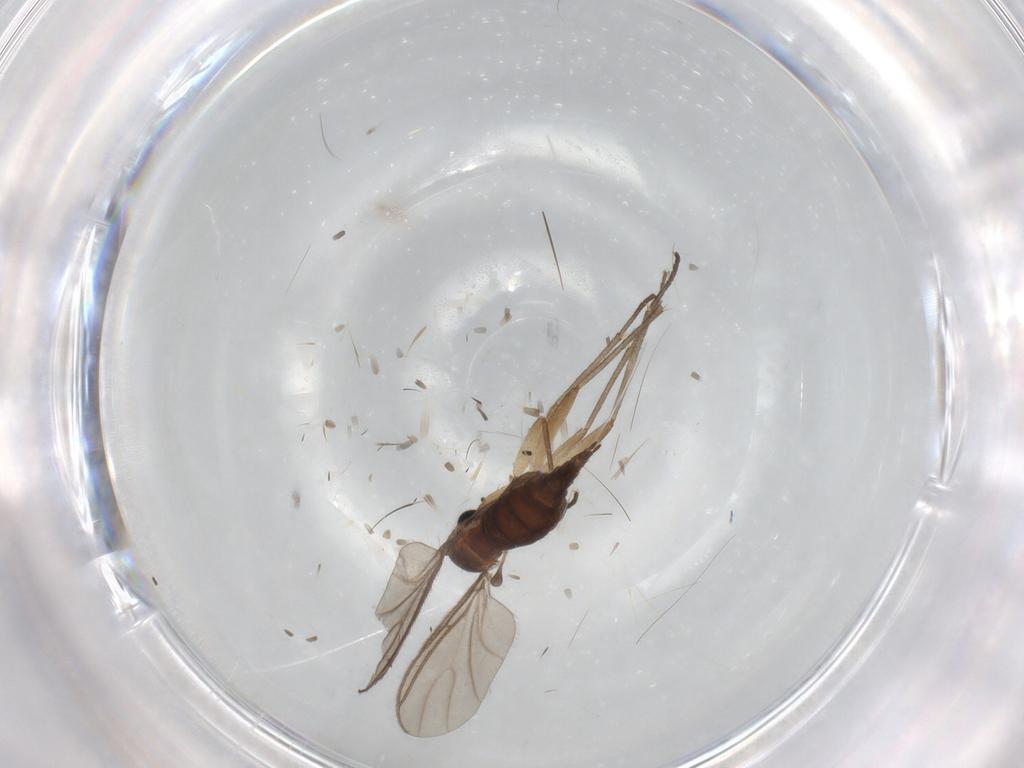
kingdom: Animalia
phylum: Arthropoda
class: Insecta
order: Diptera
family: Sciaridae
